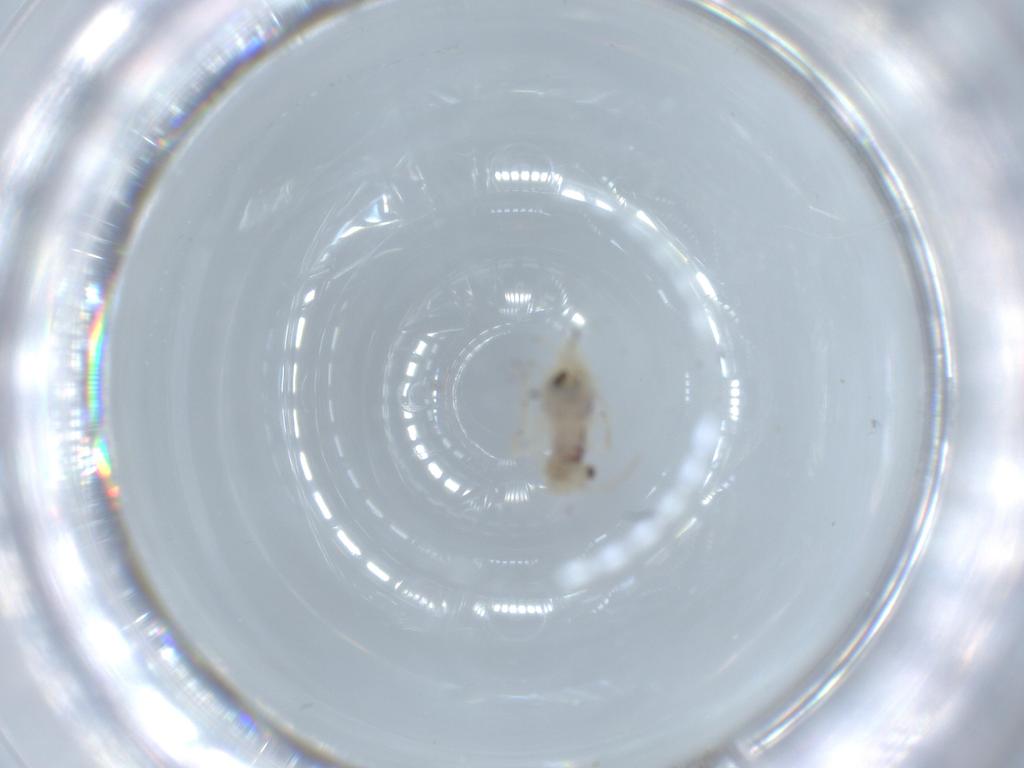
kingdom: Animalia
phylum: Arthropoda
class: Insecta
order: Psocodea
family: Caeciliusidae
